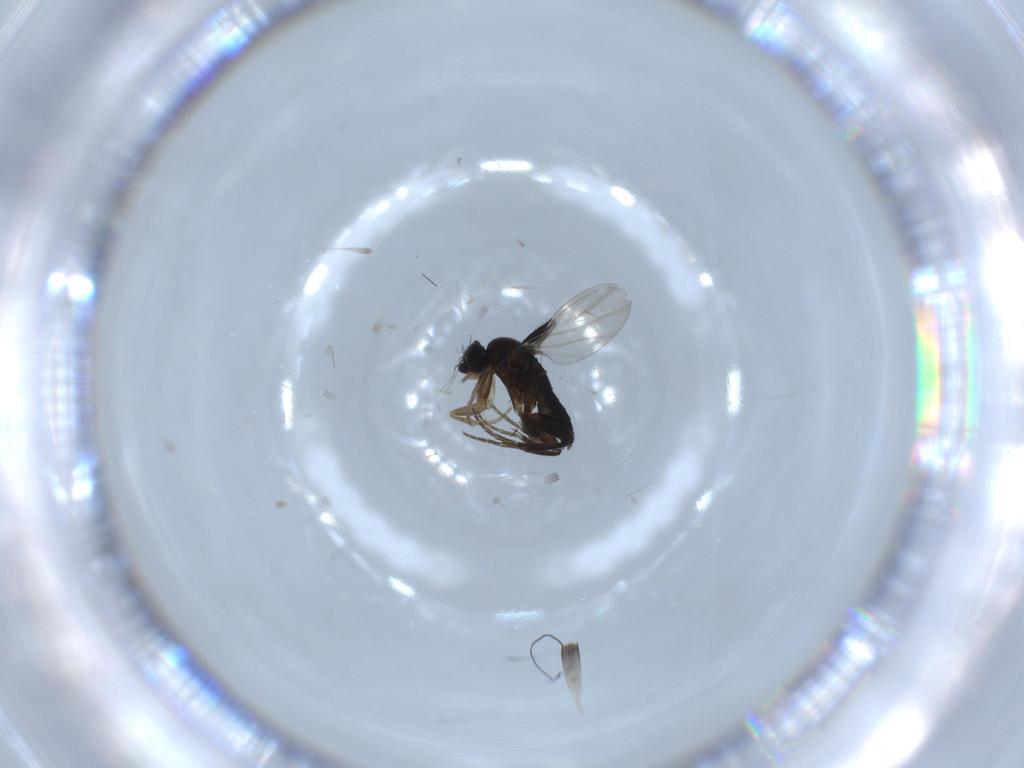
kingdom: Animalia
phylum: Arthropoda
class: Insecta
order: Diptera
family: Phoridae
